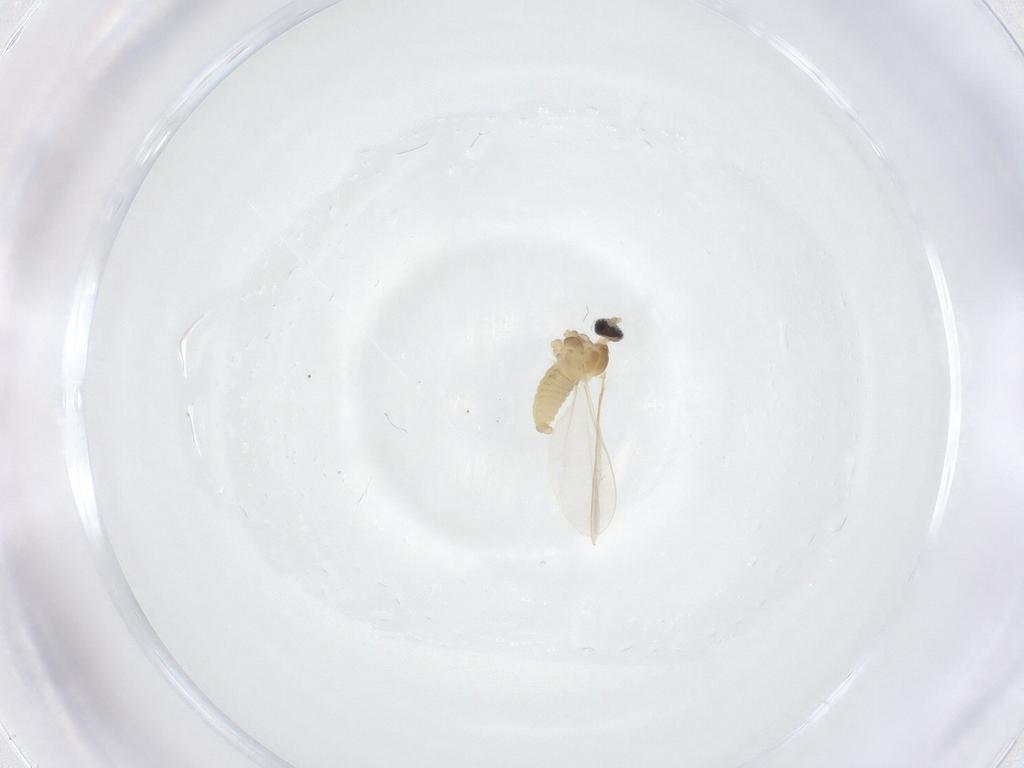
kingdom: Animalia
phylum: Arthropoda
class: Insecta
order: Diptera
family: Cecidomyiidae
